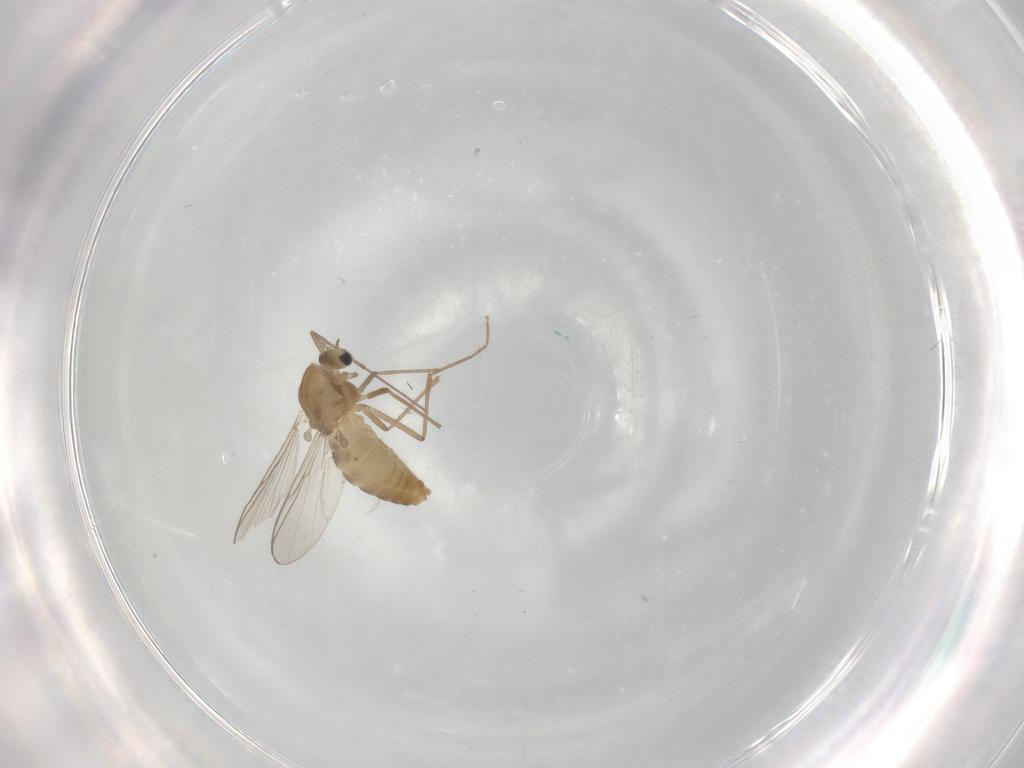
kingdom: Animalia
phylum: Arthropoda
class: Insecta
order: Diptera
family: Chironomidae
